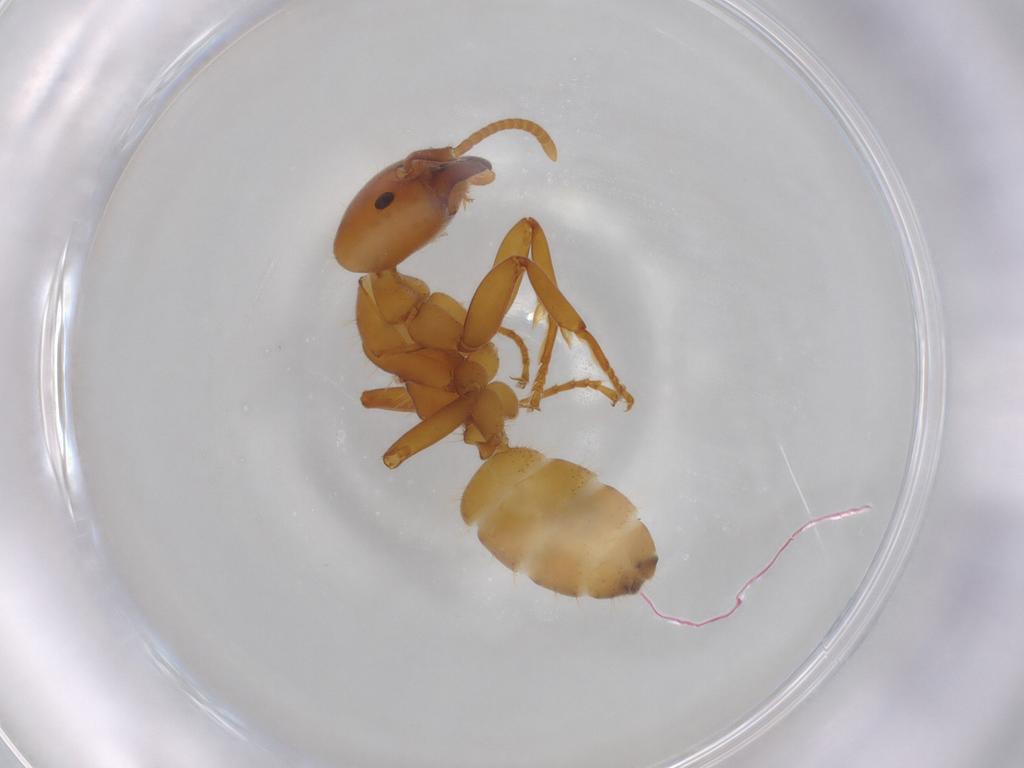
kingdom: Animalia
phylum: Arthropoda
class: Insecta
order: Hymenoptera
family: Formicidae
